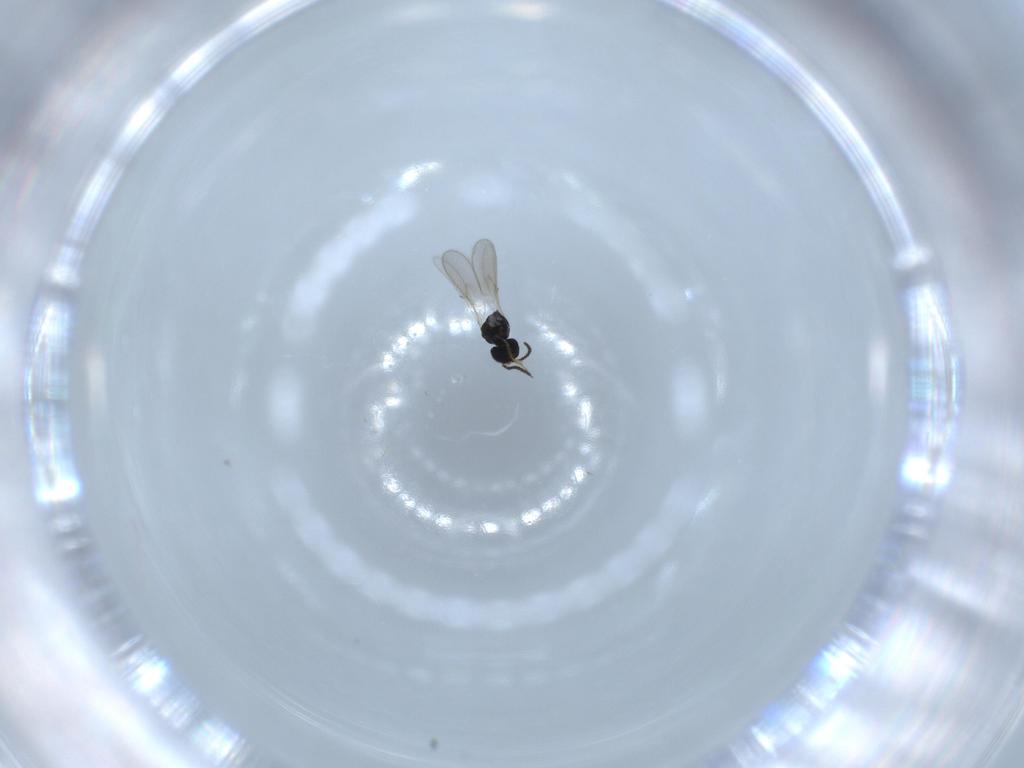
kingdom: Animalia
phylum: Arthropoda
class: Insecta
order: Hymenoptera
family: Scelionidae
